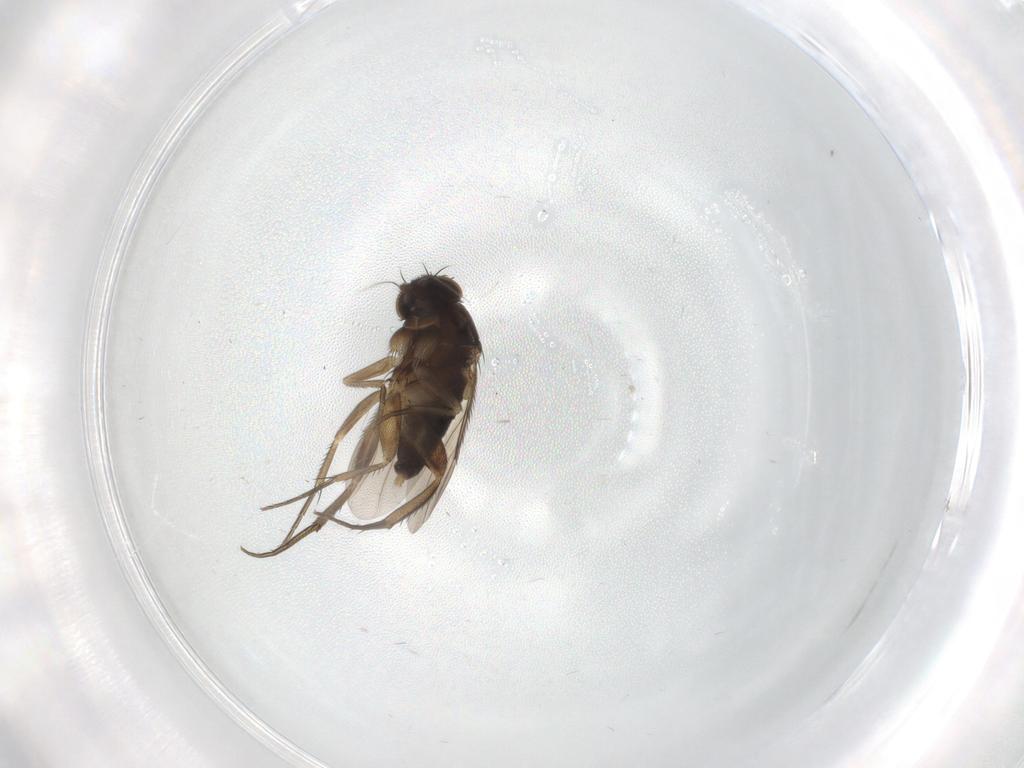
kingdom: Animalia
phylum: Arthropoda
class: Insecta
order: Diptera
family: Phoridae
